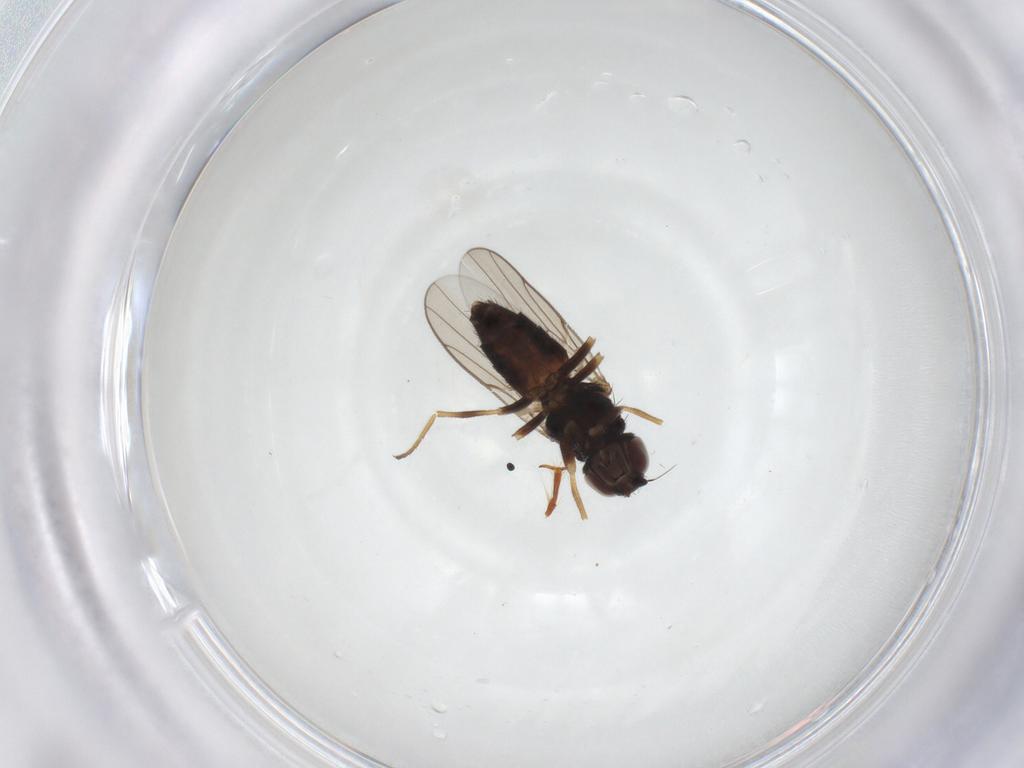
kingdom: Animalia
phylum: Arthropoda
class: Insecta
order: Diptera
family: Chloropidae
